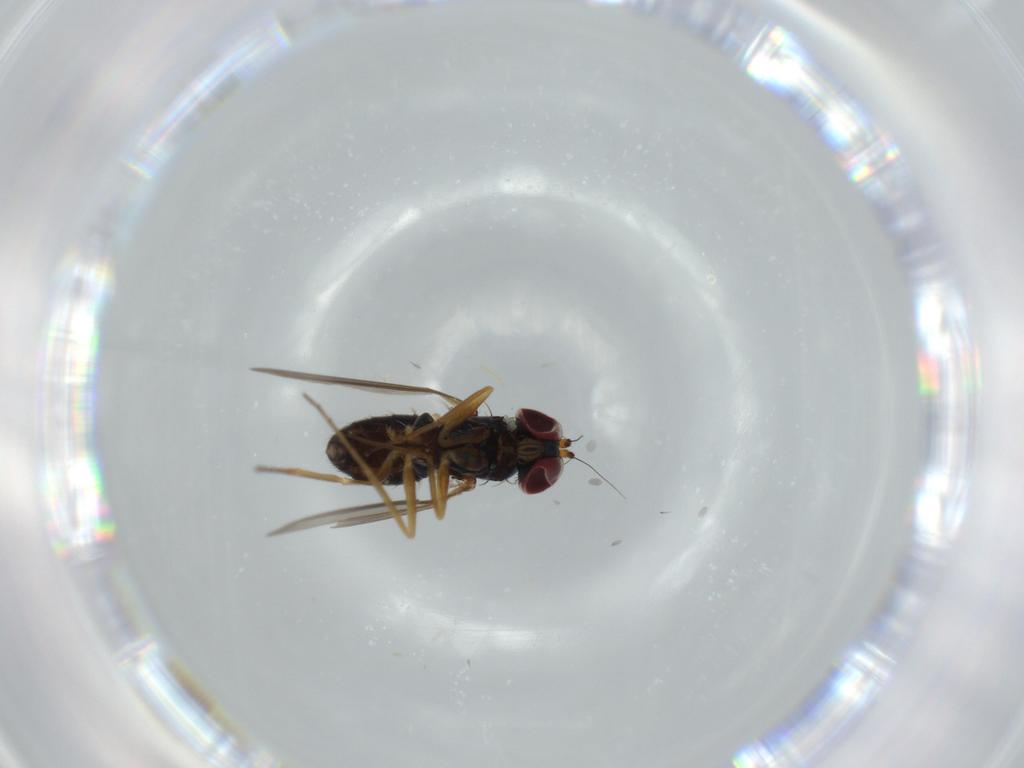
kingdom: Animalia
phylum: Arthropoda
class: Insecta
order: Diptera
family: Dolichopodidae
